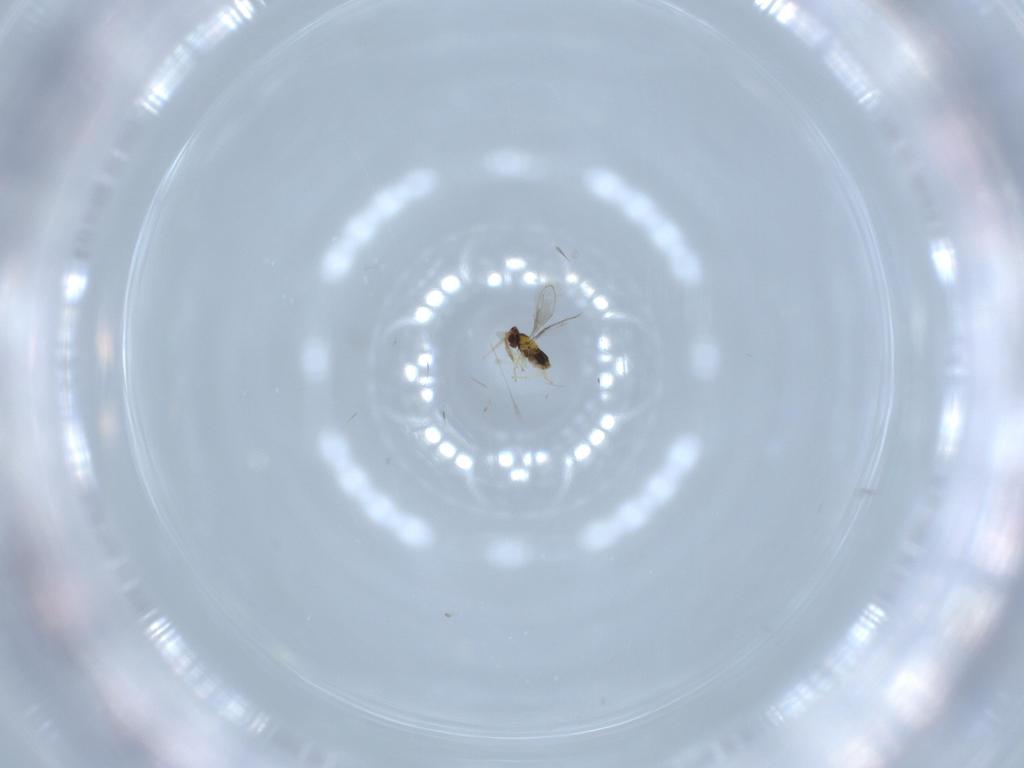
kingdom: Animalia
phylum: Arthropoda
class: Insecta
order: Hymenoptera
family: Aphelinidae
